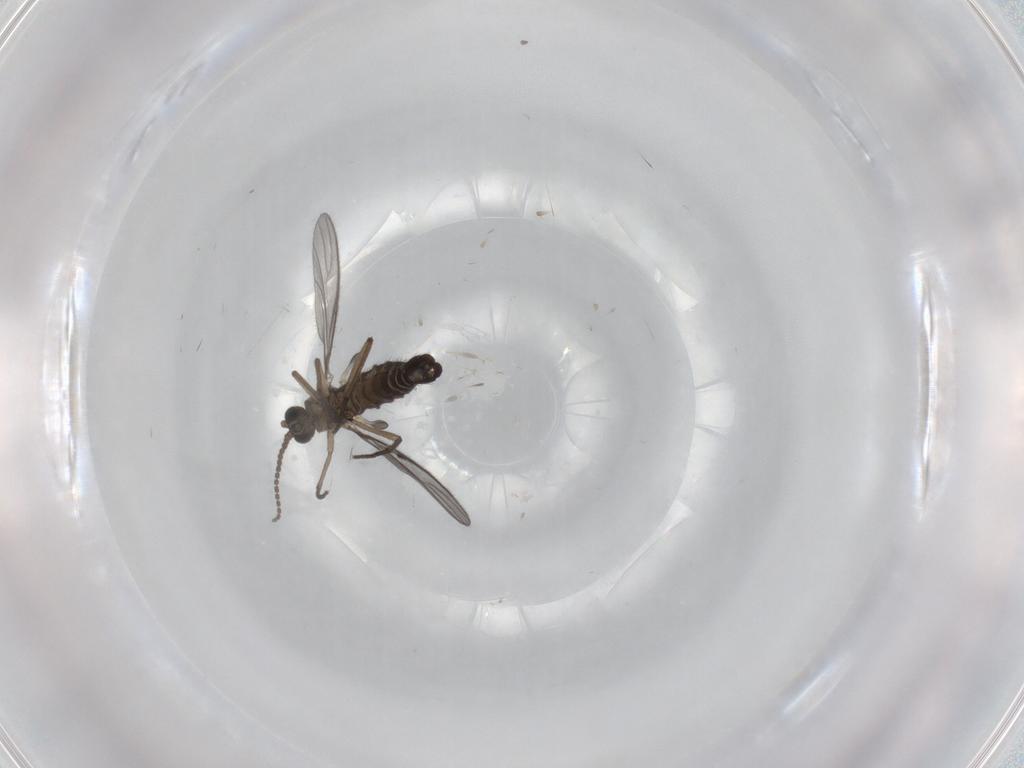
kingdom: Animalia
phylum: Arthropoda
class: Insecta
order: Diptera
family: Sciaridae
